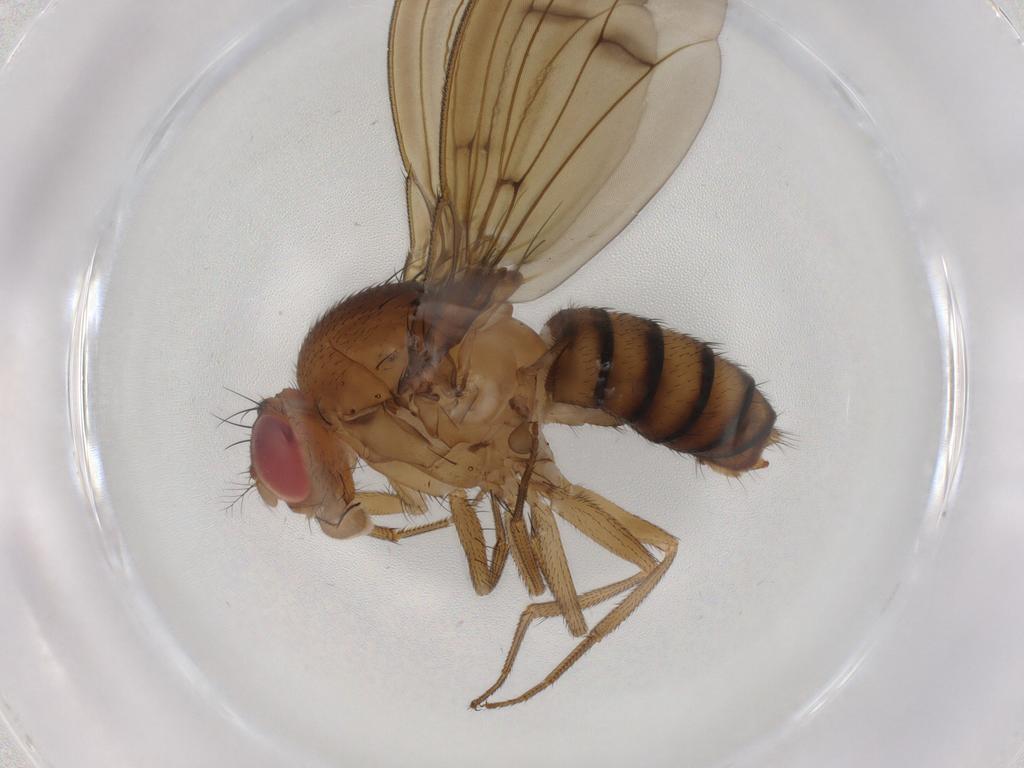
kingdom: Animalia
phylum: Arthropoda
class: Insecta
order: Diptera
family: Drosophilidae
